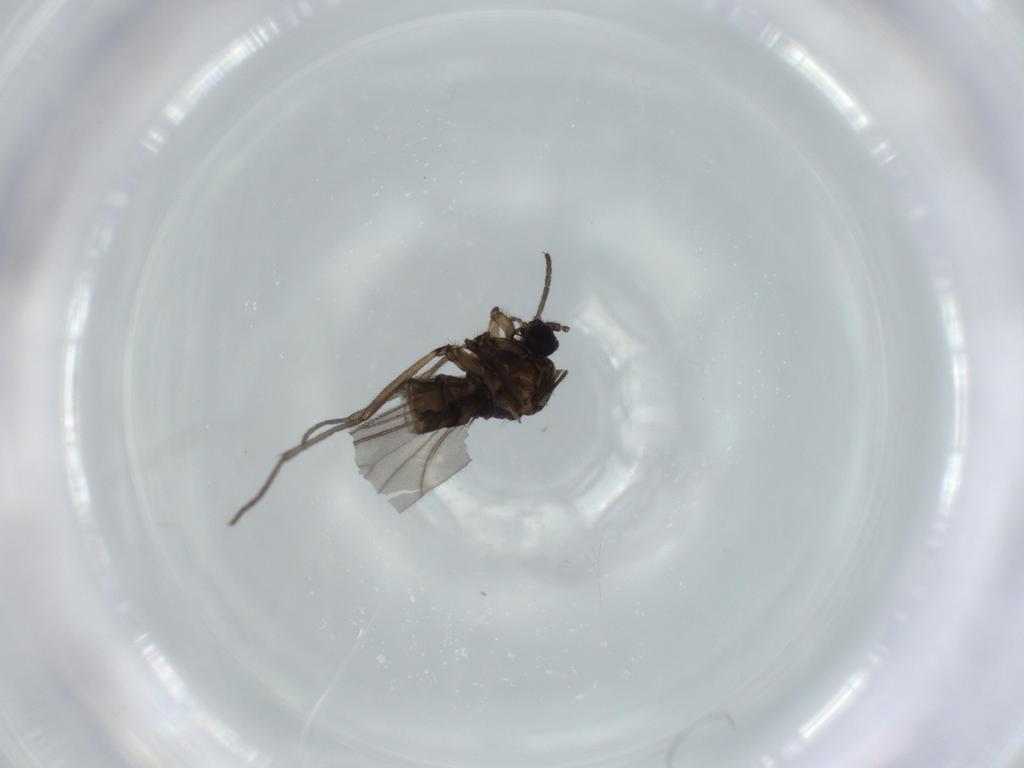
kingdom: Animalia
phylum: Arthropoda
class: Insecta
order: Diptera
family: Sciaridae
